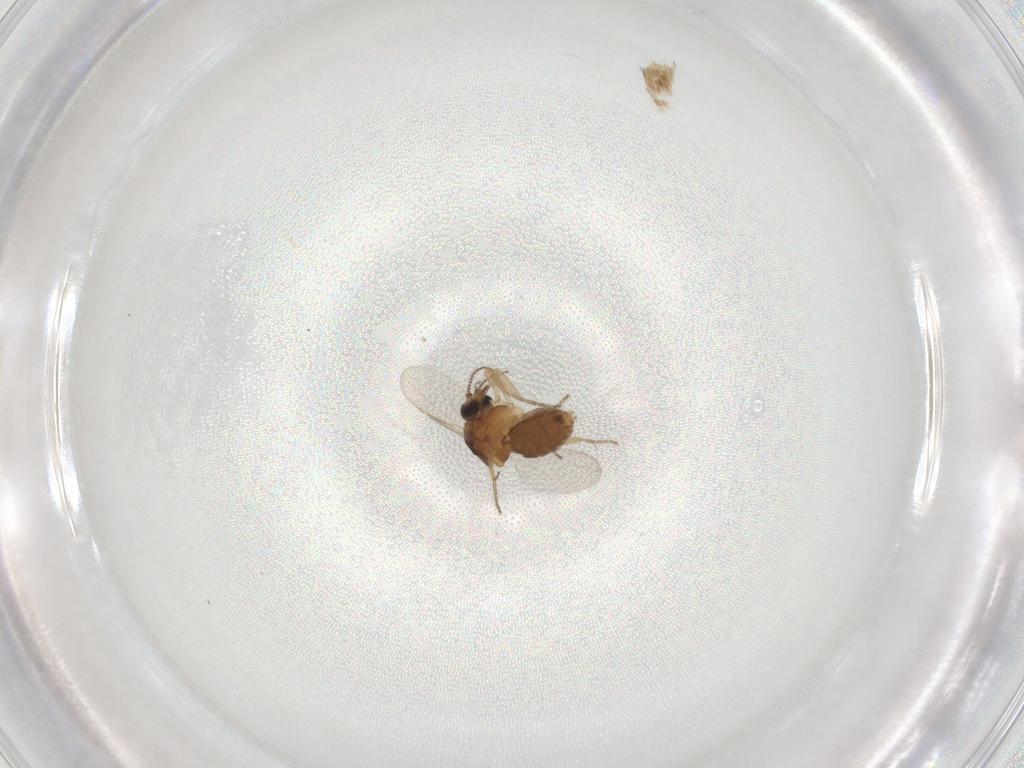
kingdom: Animalia
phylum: Arthropoda
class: Insecta
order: Diptera
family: Ceratopogonidae
